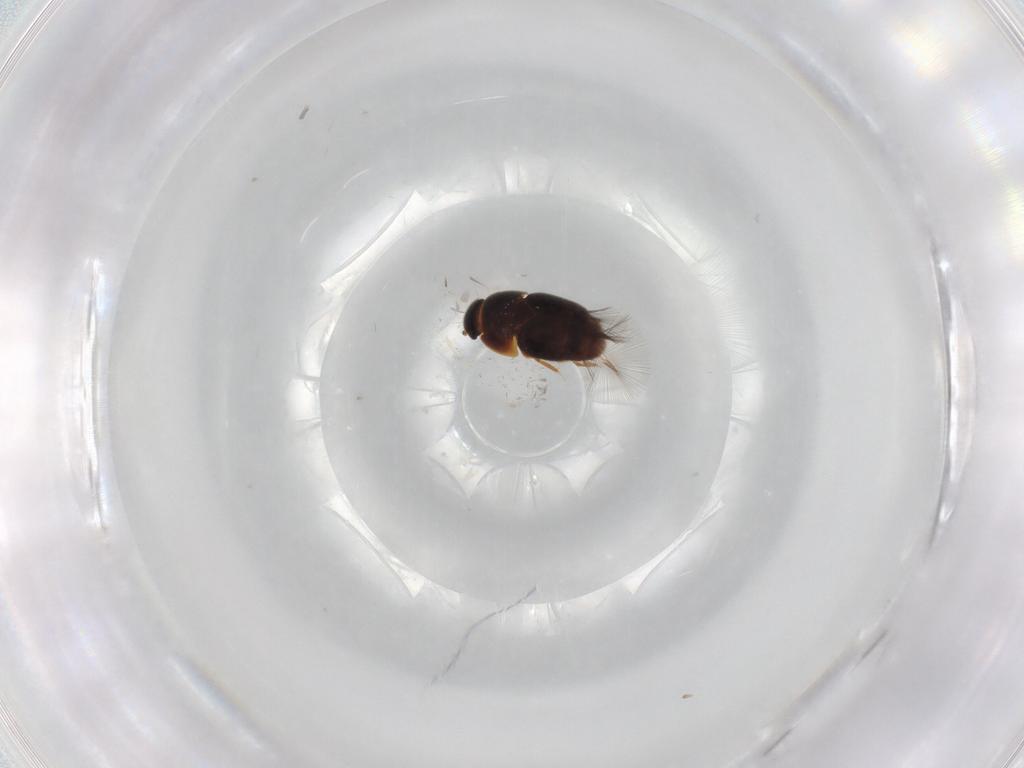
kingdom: Animalia
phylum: Arthropoda
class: Insecta
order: Coleoptera
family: Ptiliidae
